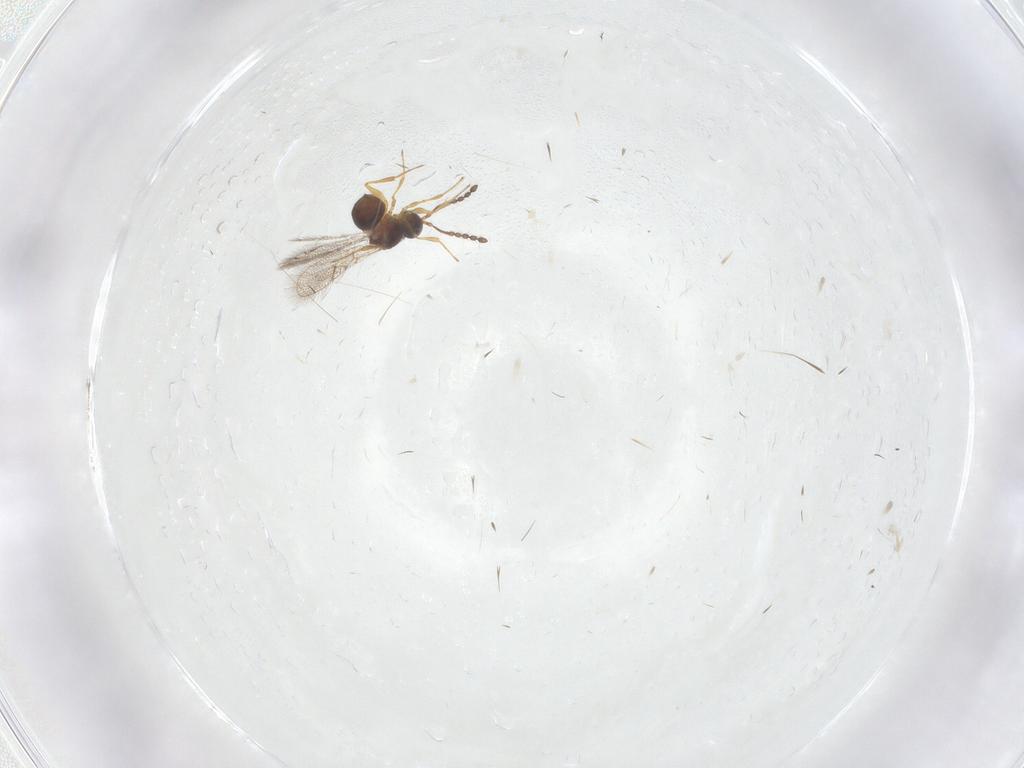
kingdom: Animalia
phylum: Arthropoda
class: Insecta
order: Hymenoptera
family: Figitidae
